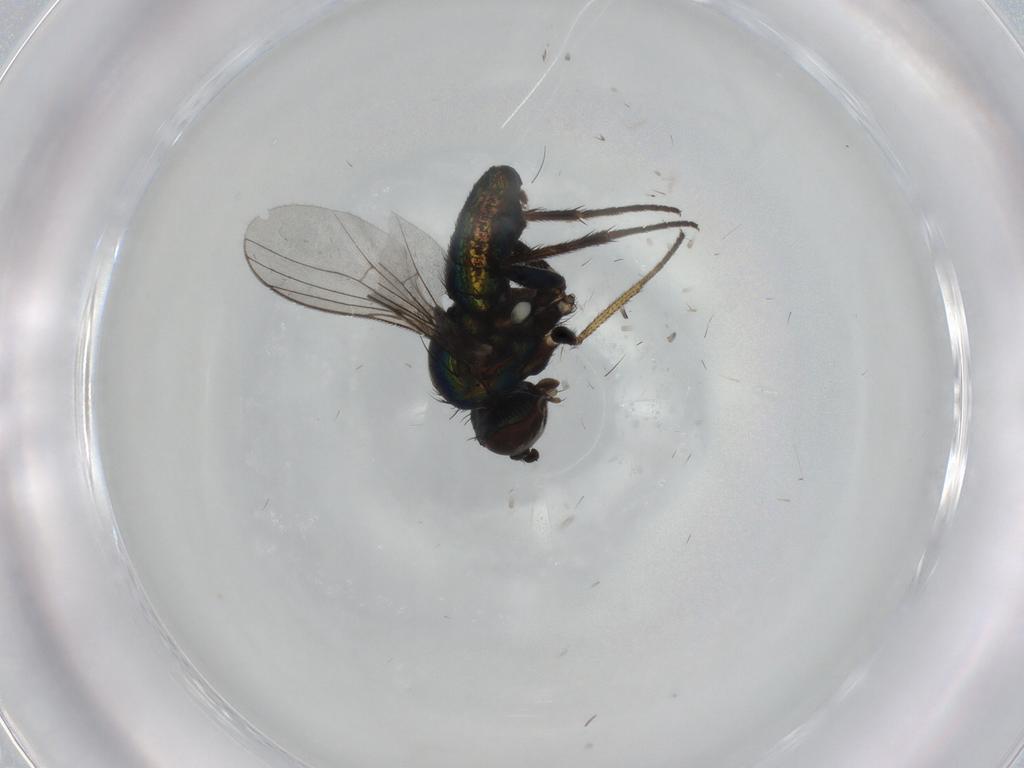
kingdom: Animalia
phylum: Arthropoda
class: Insecta
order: Diptera
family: Dolichopodidae
